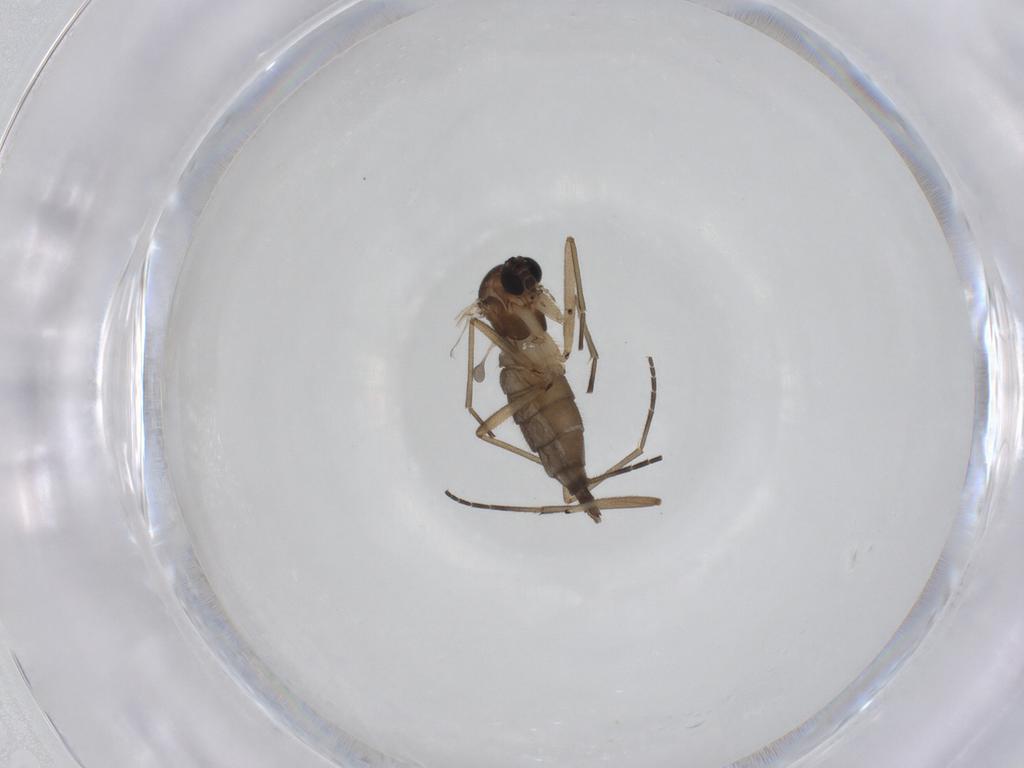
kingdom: Animalia
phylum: Arthropoda
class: Insecta
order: Diptera
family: Sciaridae
